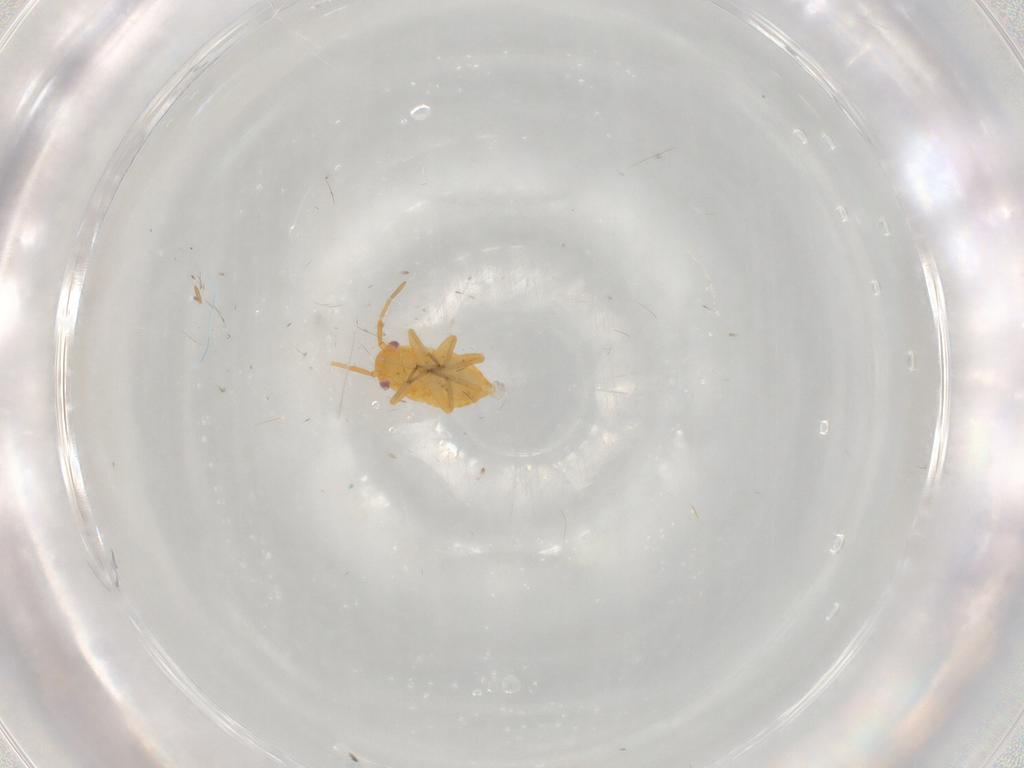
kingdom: Animalia
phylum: Arthropoda
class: Insecta
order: Hemiptera
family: Miridae
